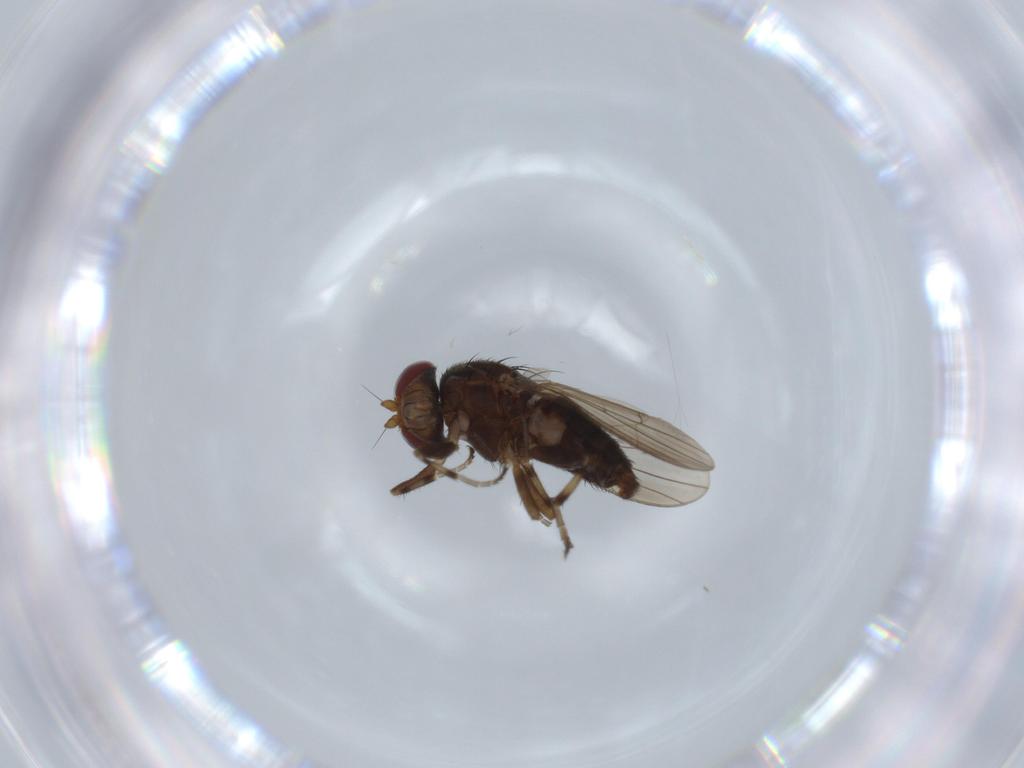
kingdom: Animalia
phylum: Arthropoda
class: Insecta
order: Diptera
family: Heleomyzidae
